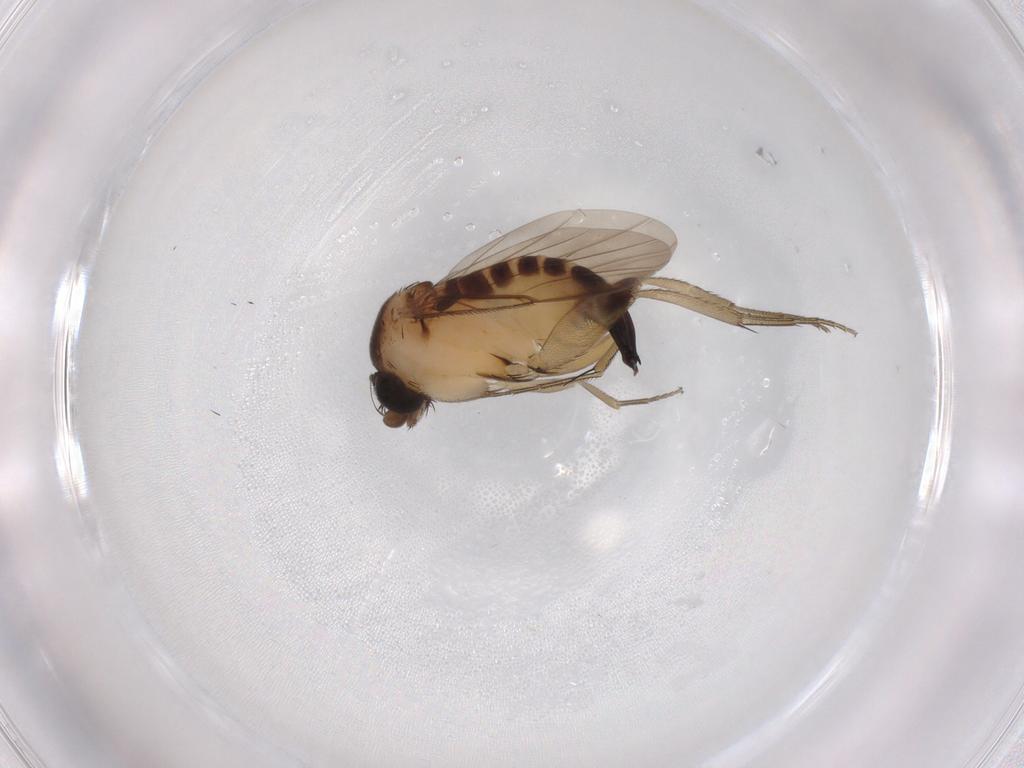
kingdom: Animalia
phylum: Arthropoda
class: Insecta
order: Diptera
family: Phoridae
